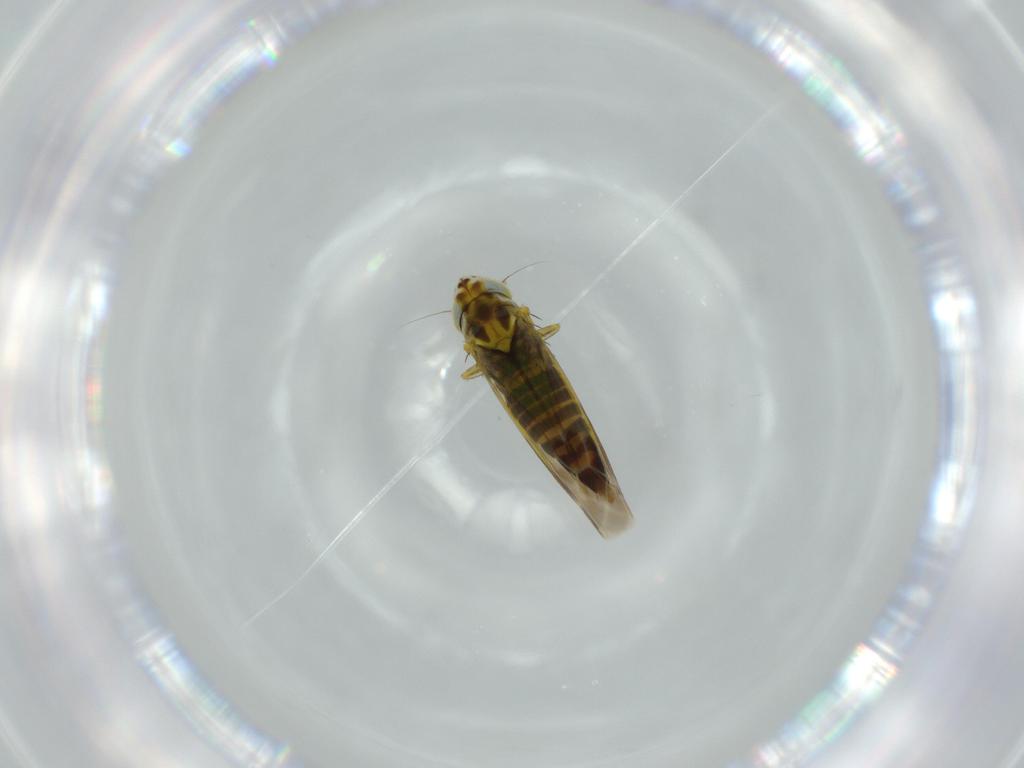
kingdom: Animalia
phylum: Arthropoda
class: Insecta
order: Hemiptera
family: Cicadellidae
